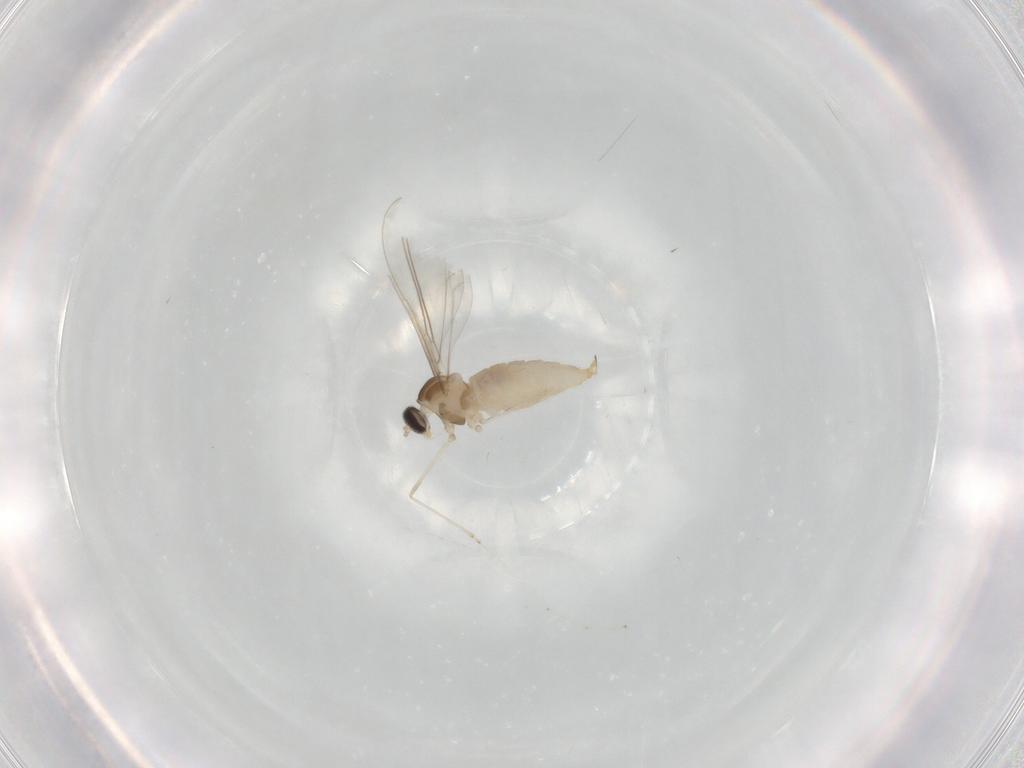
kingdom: Animalia
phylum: Arthropoda
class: Insecta
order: Diptera
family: Cecidomyiidae
